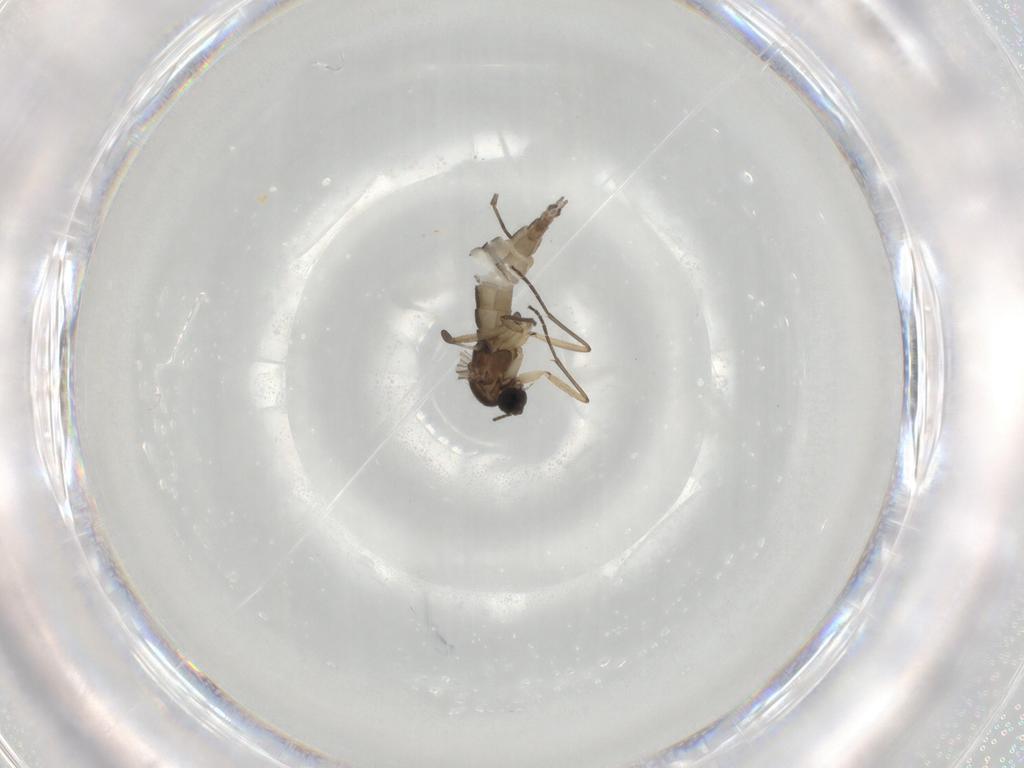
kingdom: Animalia
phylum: Arthropoda
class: Insecta
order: Diptera
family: Sciaridae
